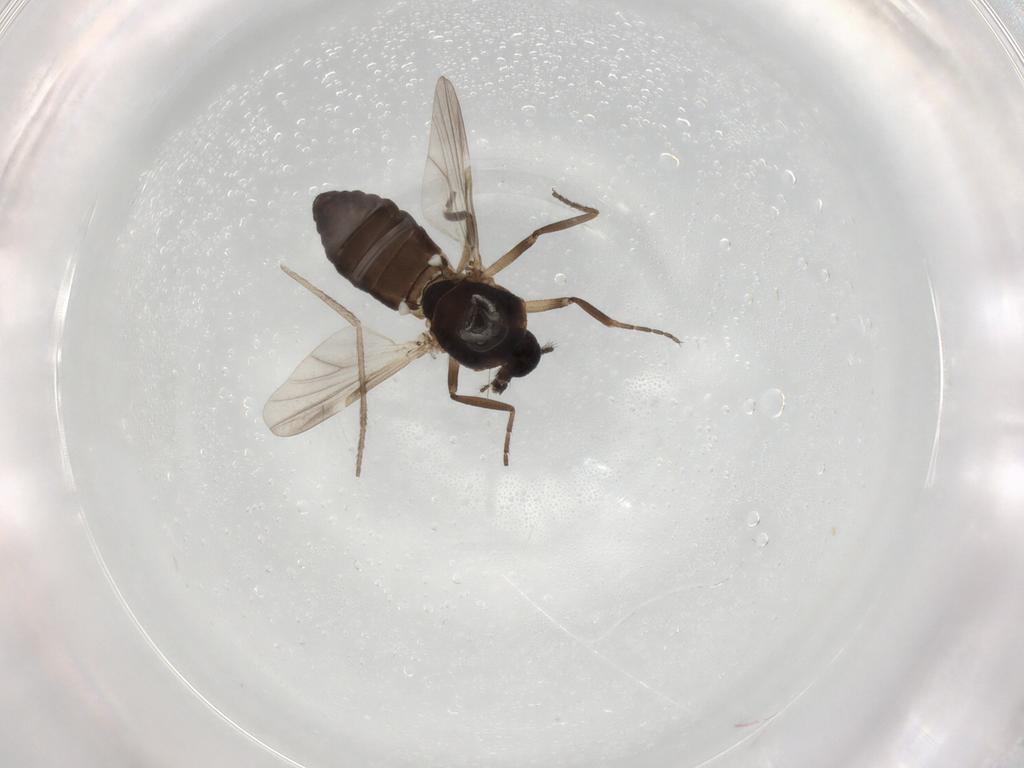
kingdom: Animalia
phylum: Arthropoda
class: Insecta
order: Diptera
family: Ceratopogonidae
